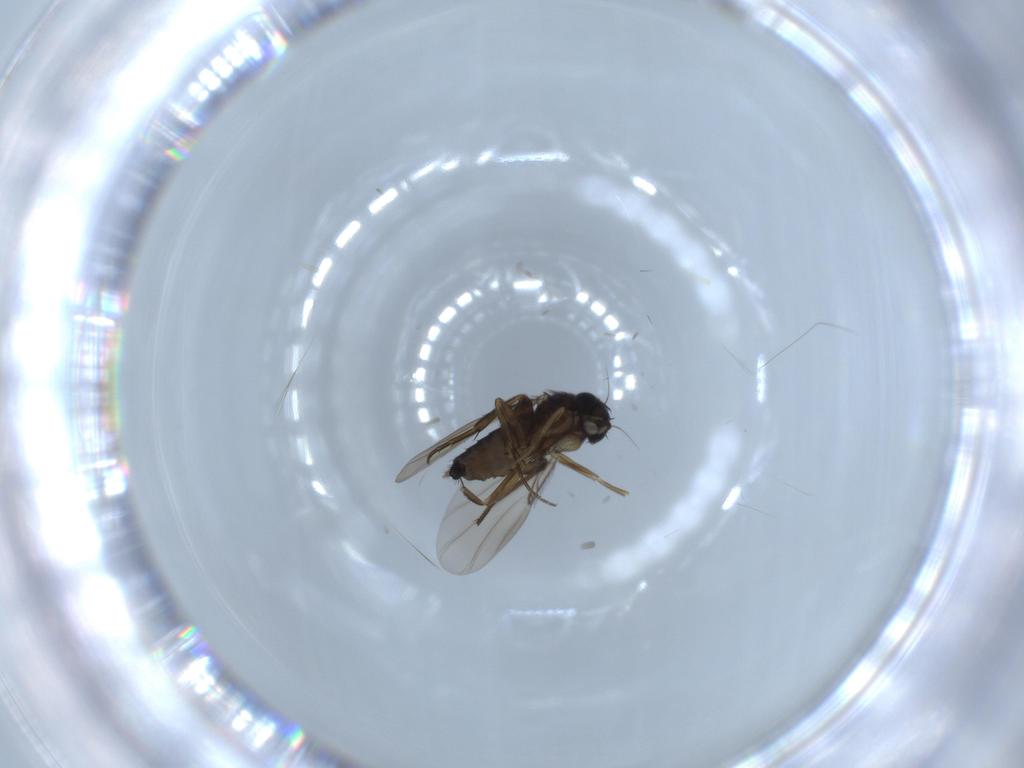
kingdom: Animalia
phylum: Arthropoda
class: Insecta
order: Diptera
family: Phoridae
